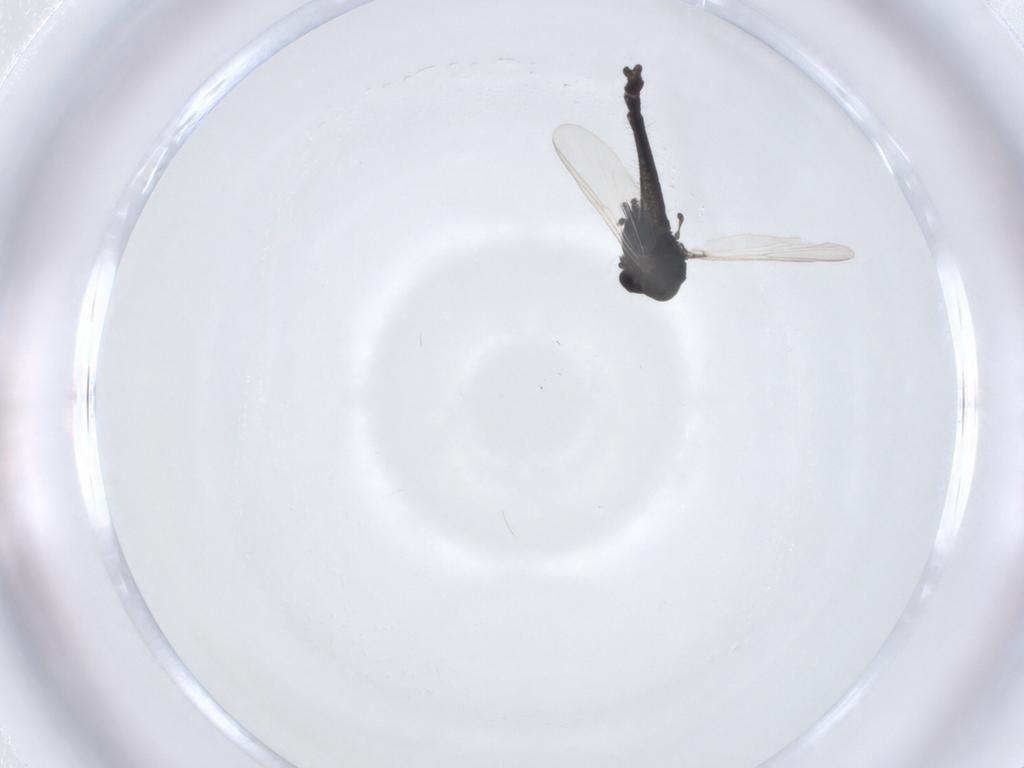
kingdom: Animalia
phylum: Arthropoda
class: Insecta
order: Diptera
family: Chironomidae
